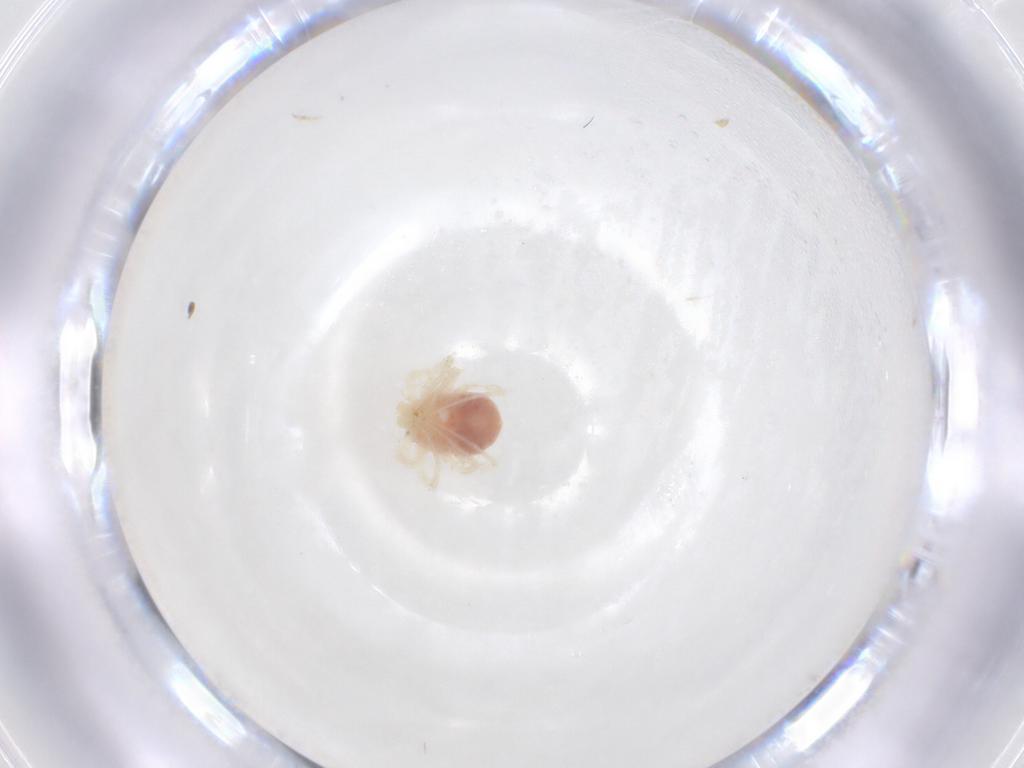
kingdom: Animalia
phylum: Arthropoda
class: Arachnida
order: Trombidiformes
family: Anystidae
